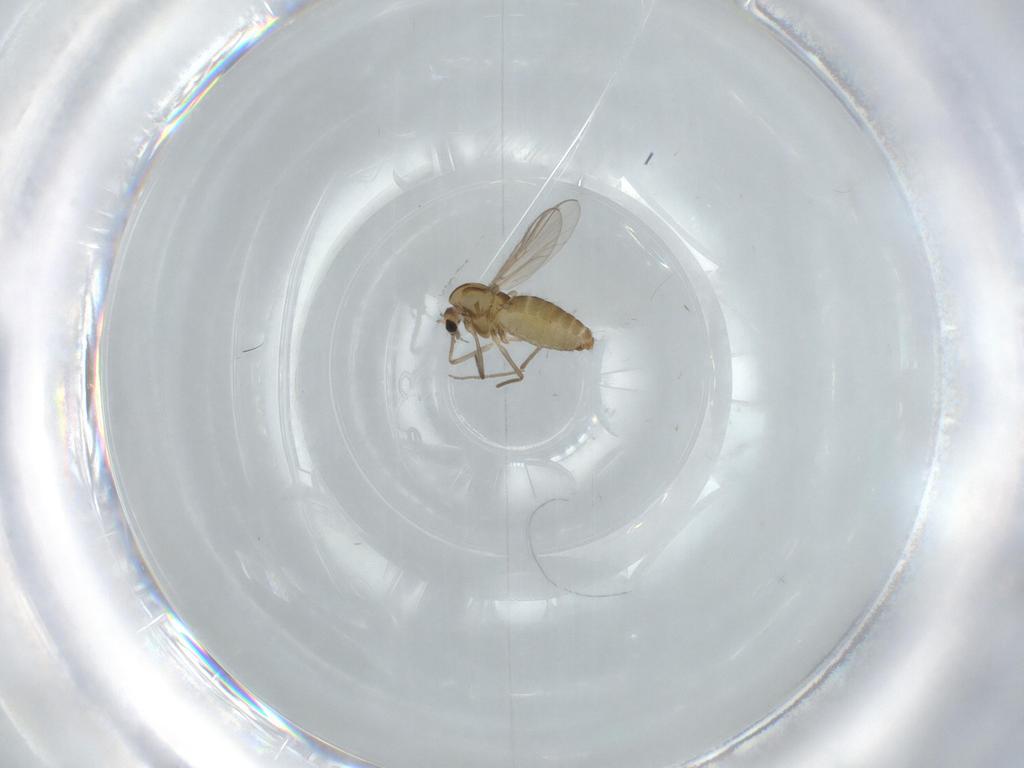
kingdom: Animalia
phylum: Arthropoda
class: Insecta
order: Diptera
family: Chironomidae
